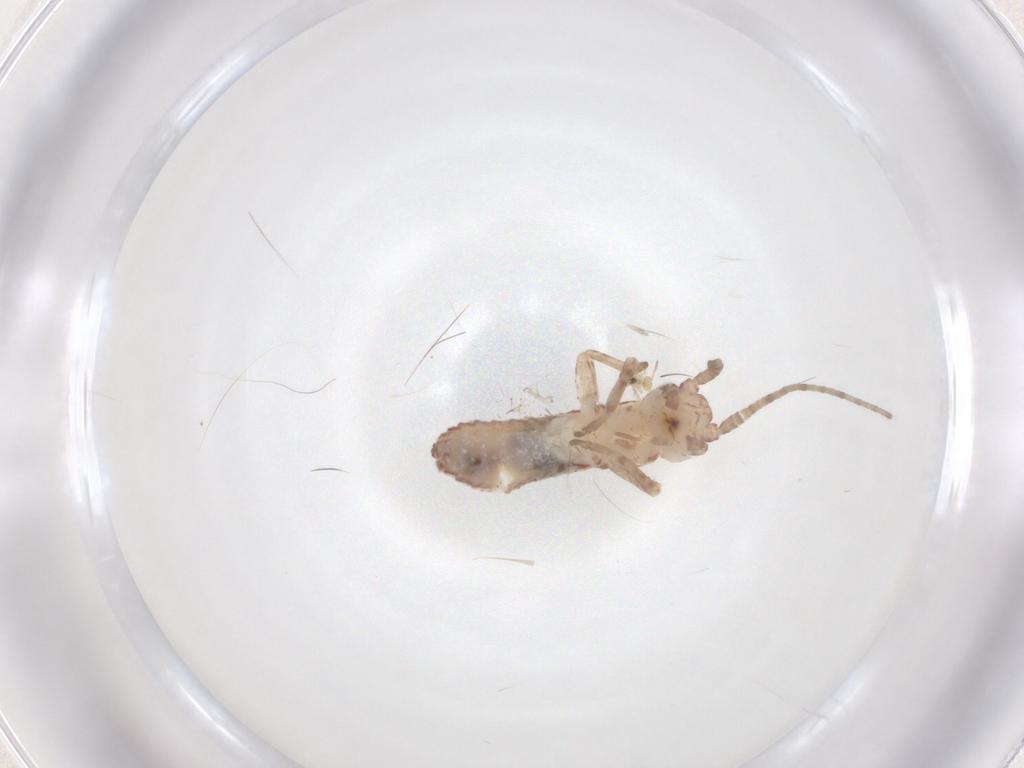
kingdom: Animalia
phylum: Arthropoda
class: Insecta
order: Orthoptera
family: Mogoplistidae
